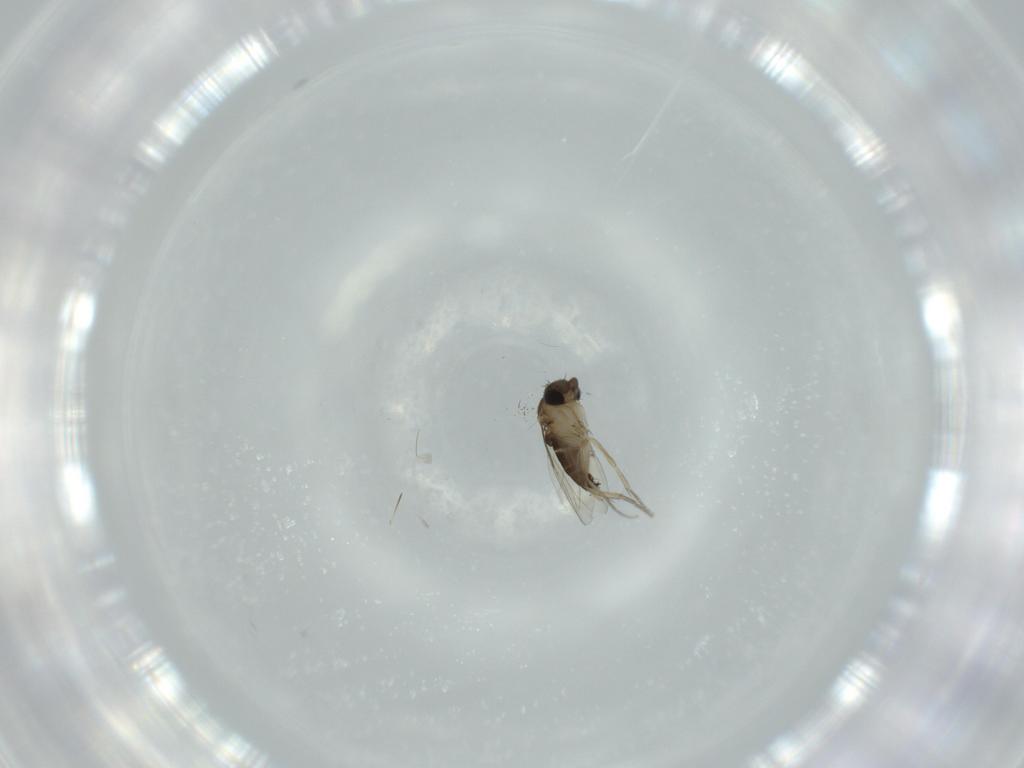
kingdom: Animalia
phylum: Arthropoda
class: Insecta
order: Diptera
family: Phoridae
